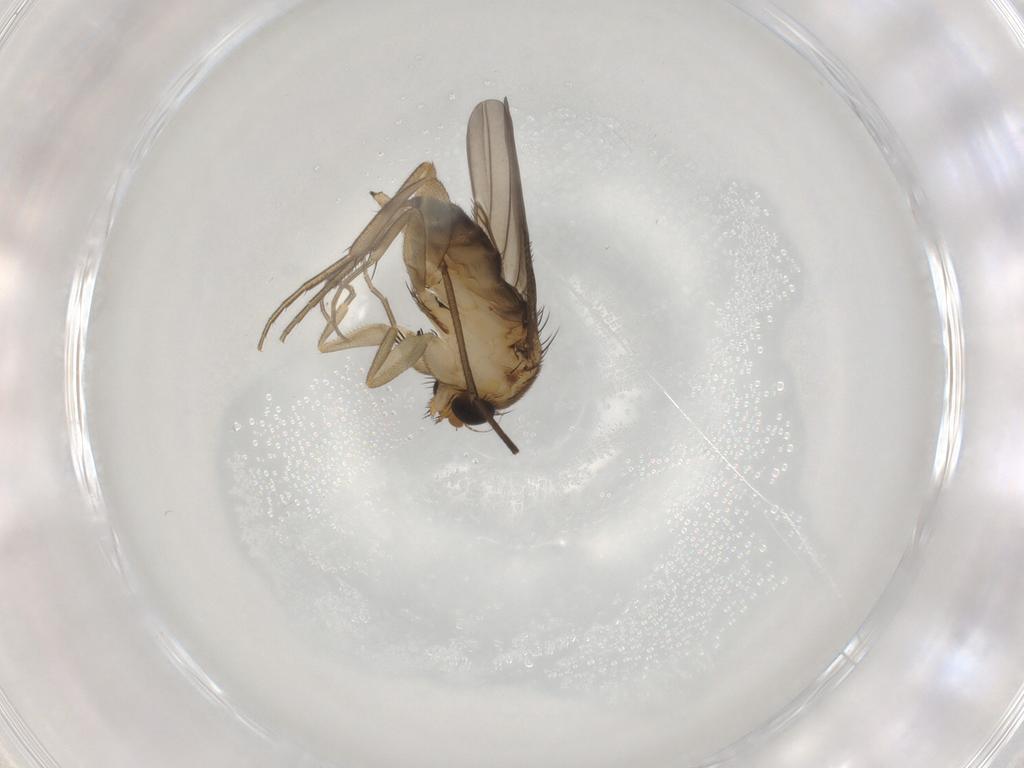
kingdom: Animalia
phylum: Arthropoda
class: Insecta
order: Diptera
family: Phoridae
